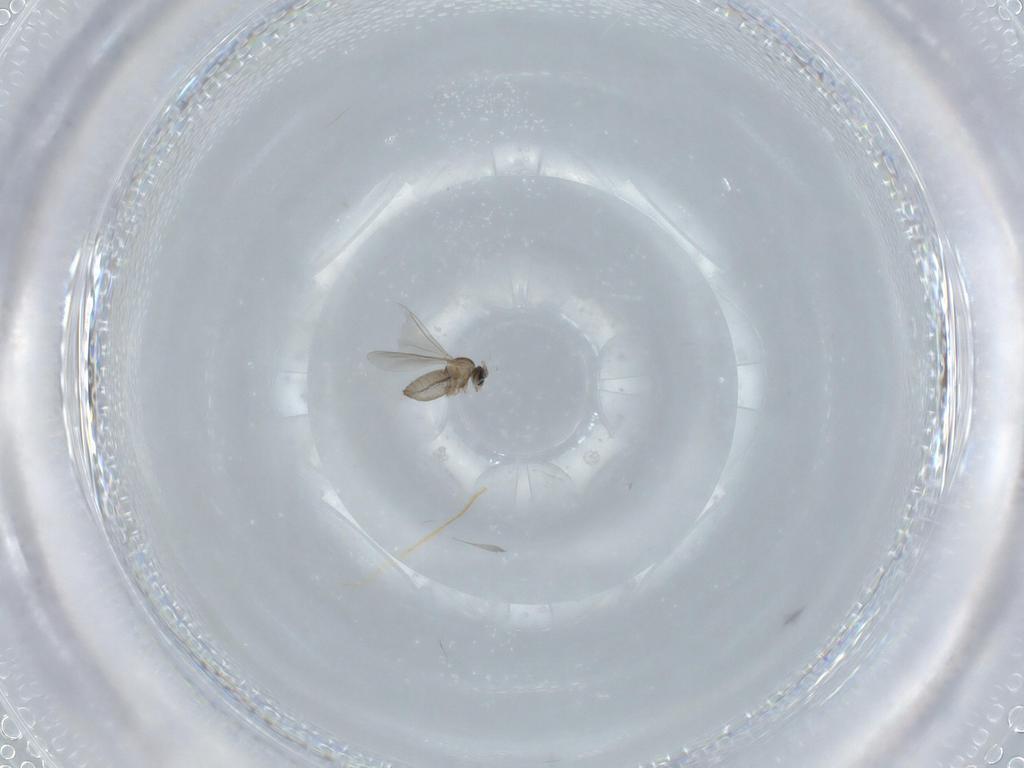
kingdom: Animalia
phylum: Arthropoda
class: Insecta
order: Diptera
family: Cecidomyiidae
